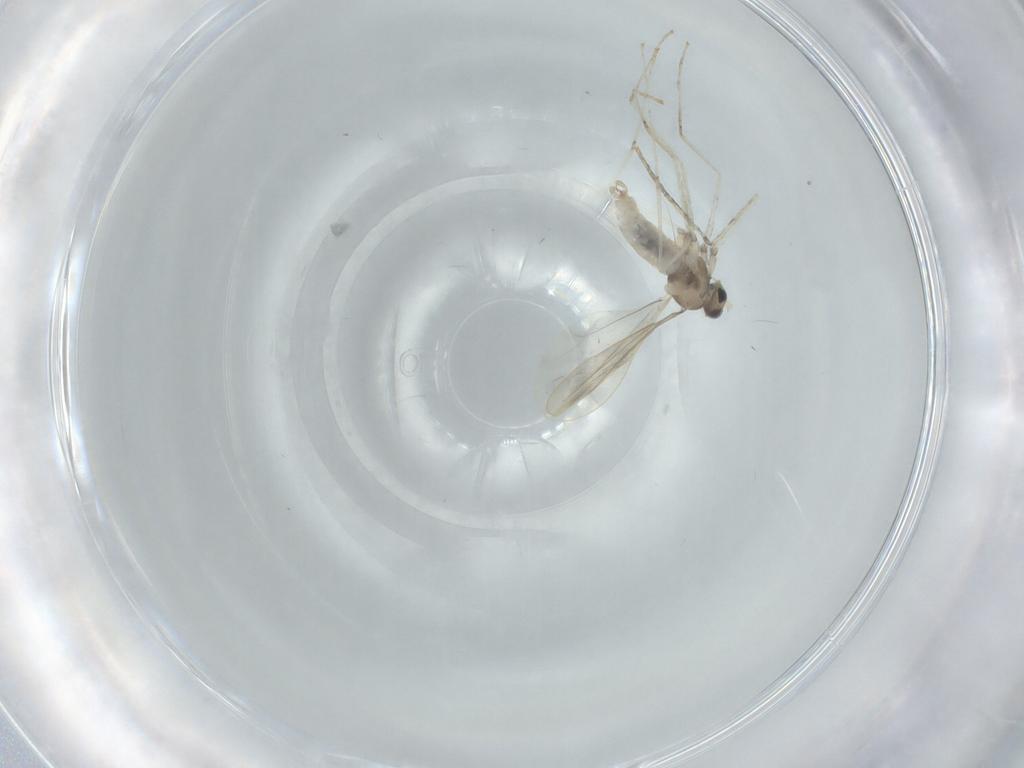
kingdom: Animalia
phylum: Arthropoda
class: Insecta
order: Diptera
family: Cecidomyiidae
